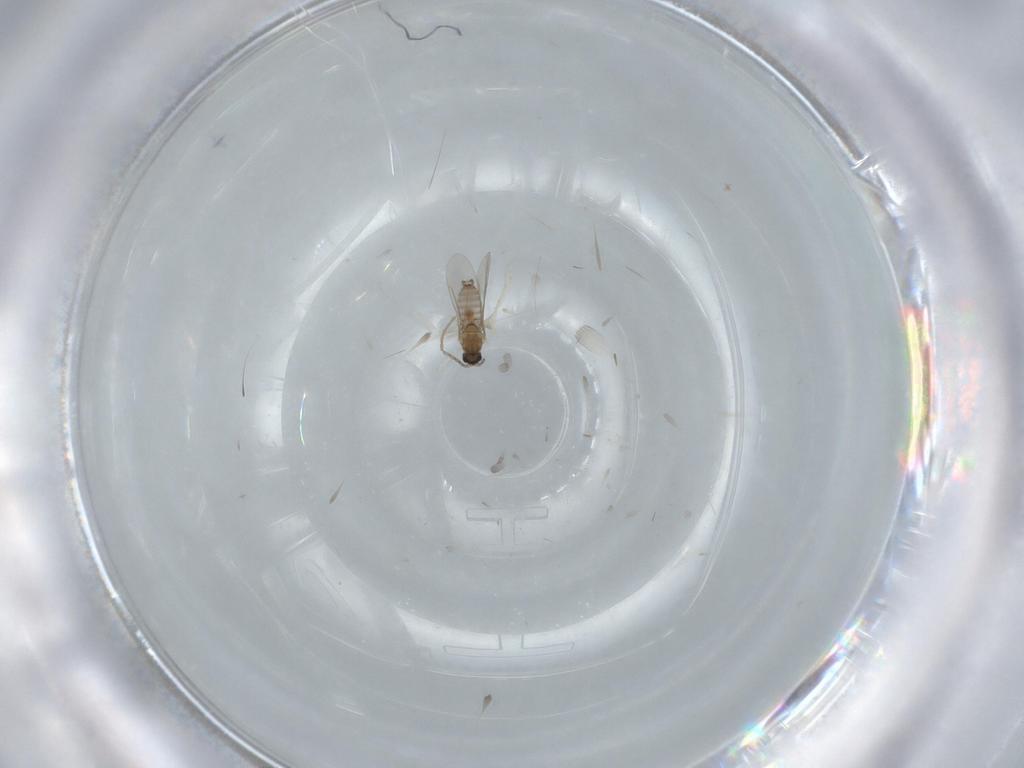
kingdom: Animalia
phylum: Arthropoda
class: Insecta
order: Diptera
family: Cecidomyiidae
